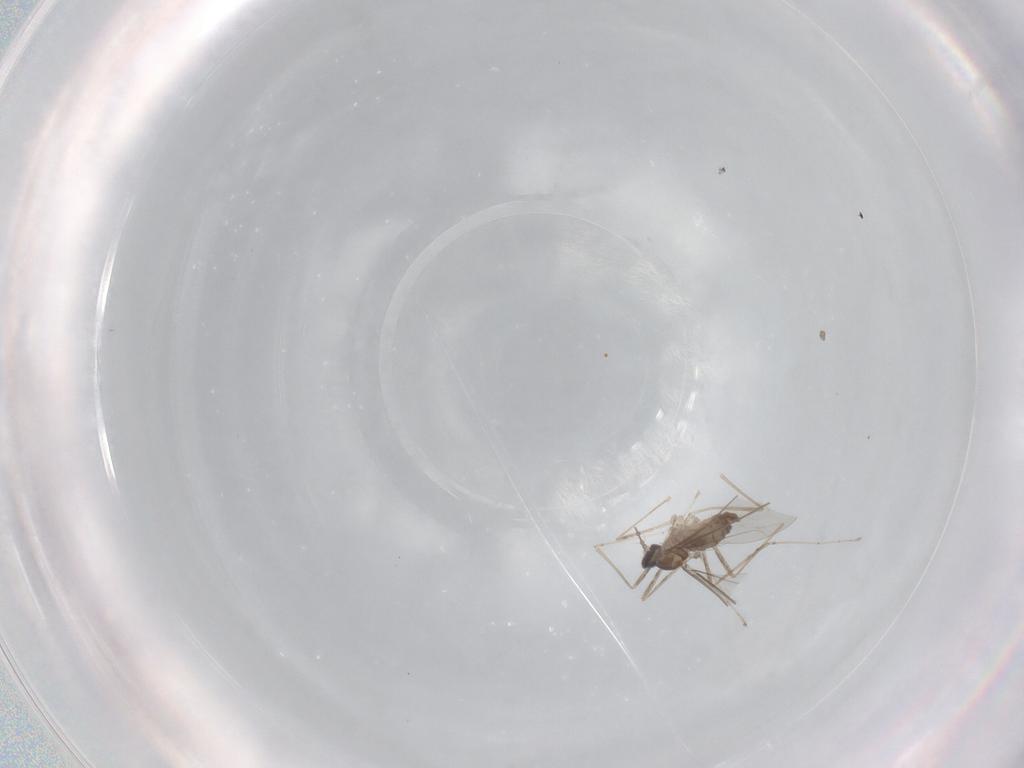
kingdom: Animalia
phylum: Arthropoda
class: Insecta
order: Diptera
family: Cecidomyiidae
